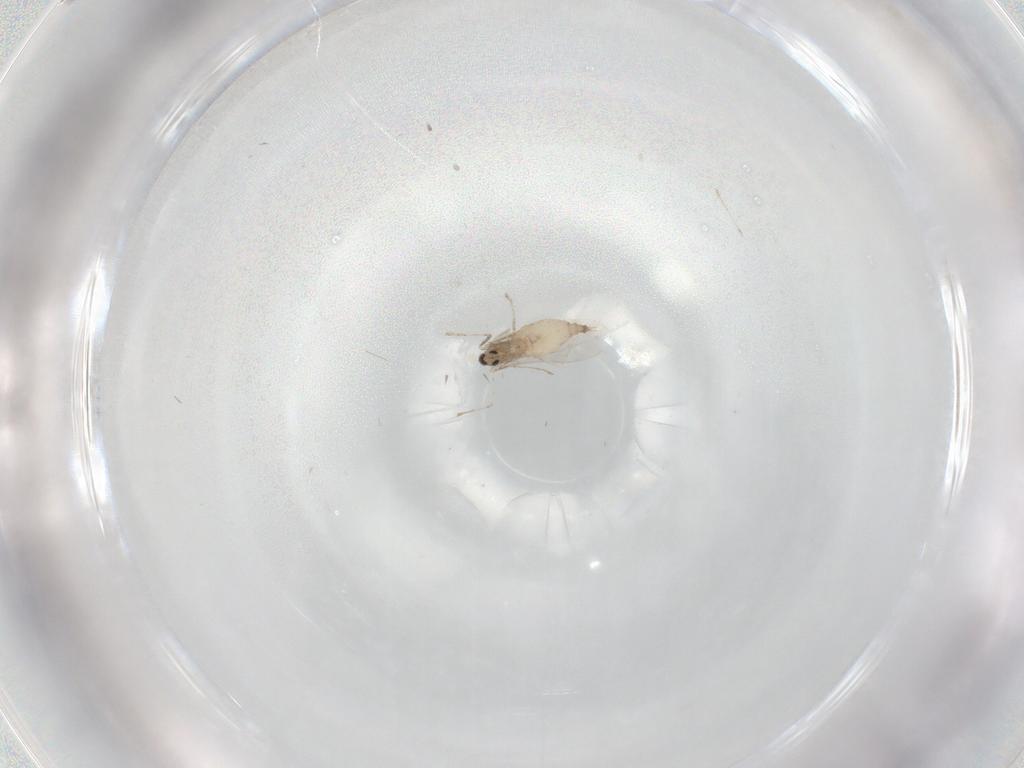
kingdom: Animalia
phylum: Arthropoda
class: Insecta
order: Diptera
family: Cecidomyiidae
